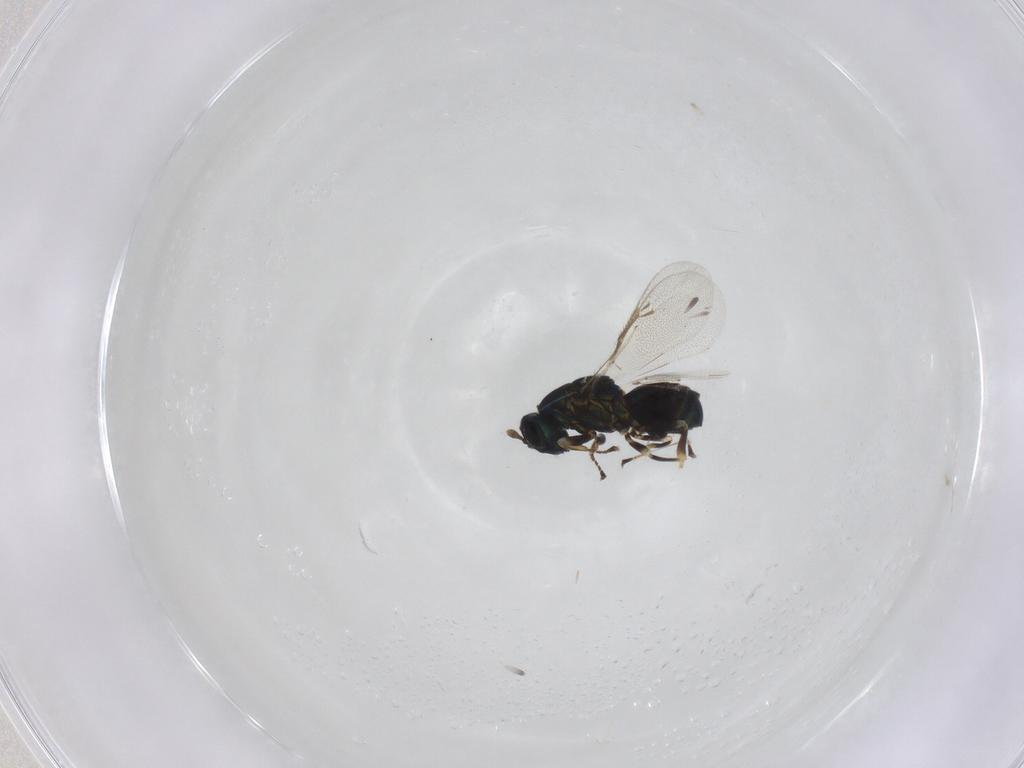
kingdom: Animalia
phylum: Arthropoda
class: Insecta
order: Hymenoptera
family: Eulophidae
